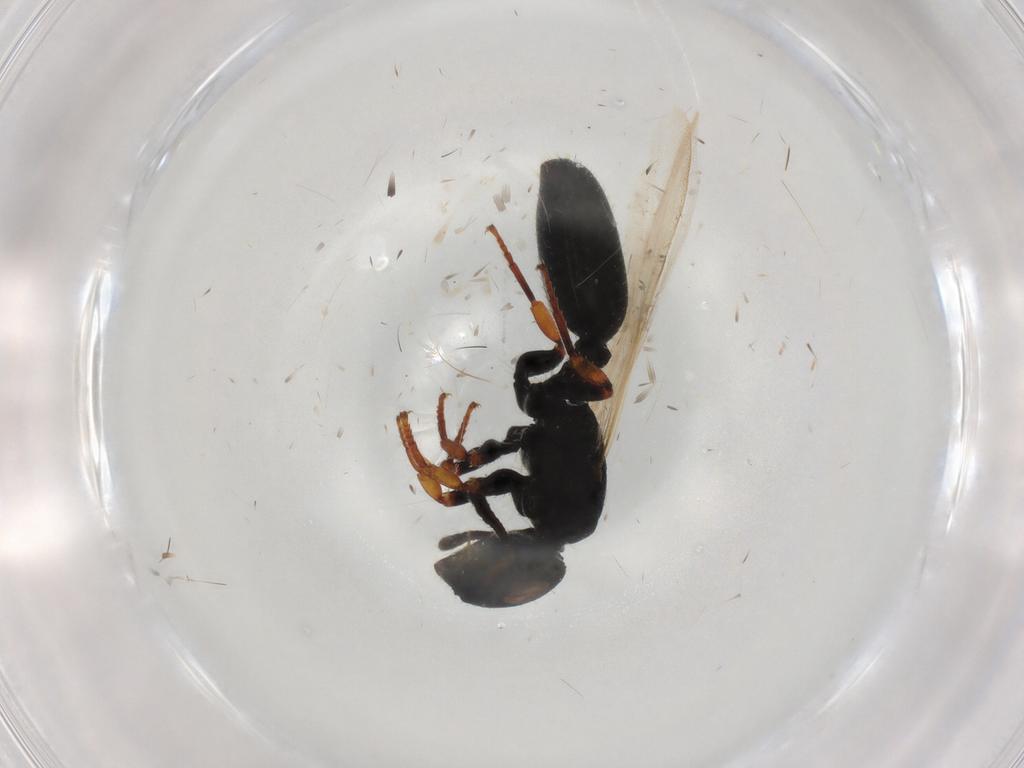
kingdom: Animalia
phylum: Arthropoda
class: Insecta
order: Hymenoptera
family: Formicidae
